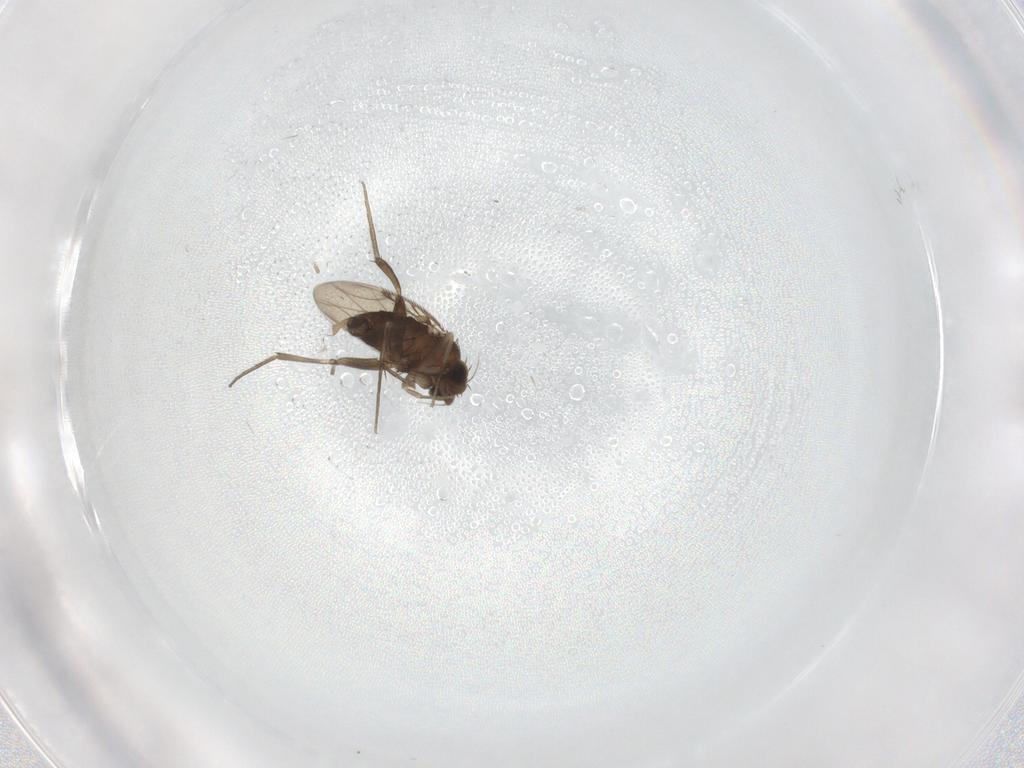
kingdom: Animalia
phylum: Arthropoda
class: Insecta
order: Diptera
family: Phoridae
